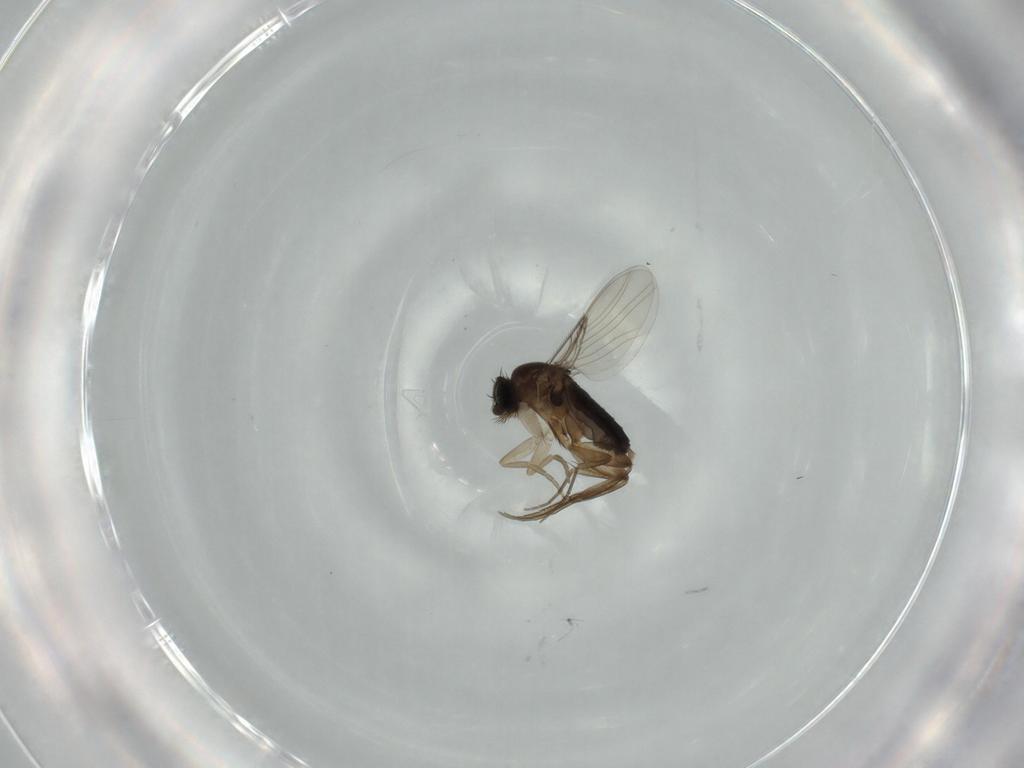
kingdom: Animalia
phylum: Arthropoda
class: Insecta
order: Diptera
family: Phoridae
